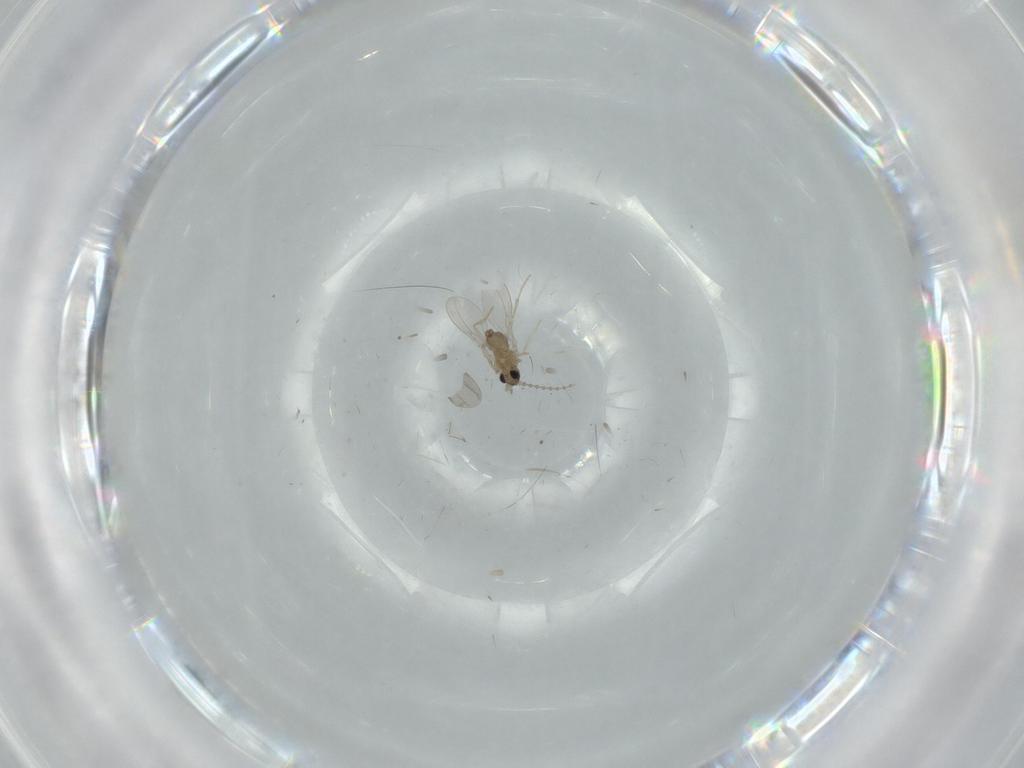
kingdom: Animalia
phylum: Arthropoda
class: Insecta
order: Diptera
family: Cecidomyiidae
